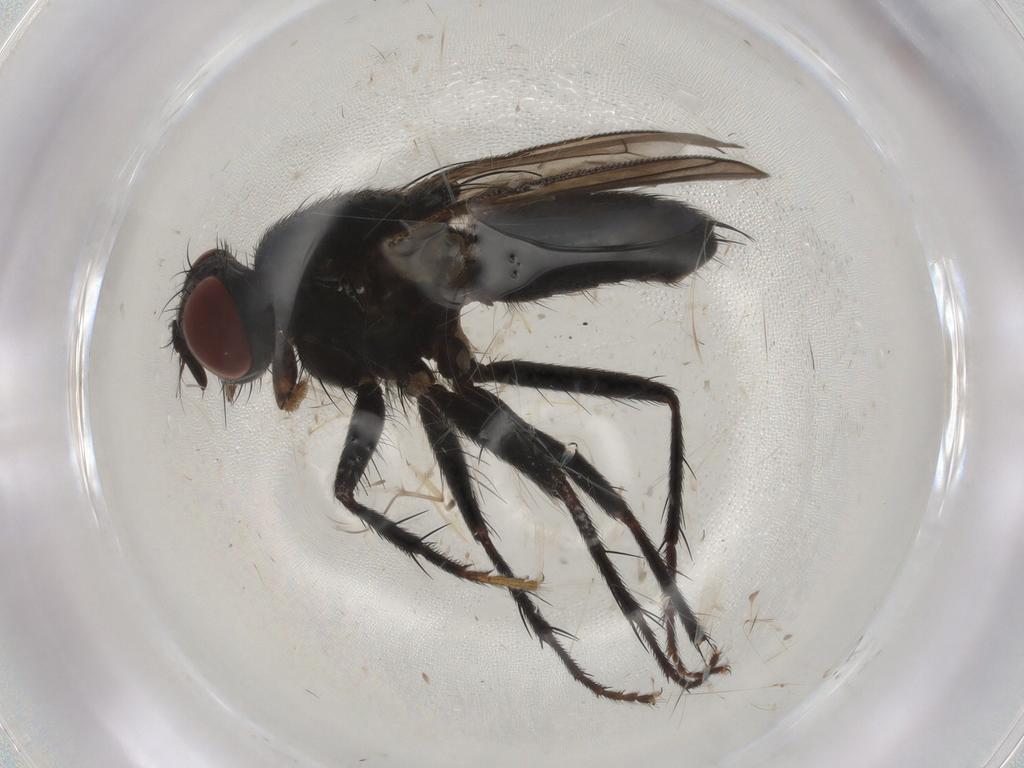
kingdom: Animalia
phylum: Arthropoda
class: Insecta
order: Diptera
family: Muscidae
